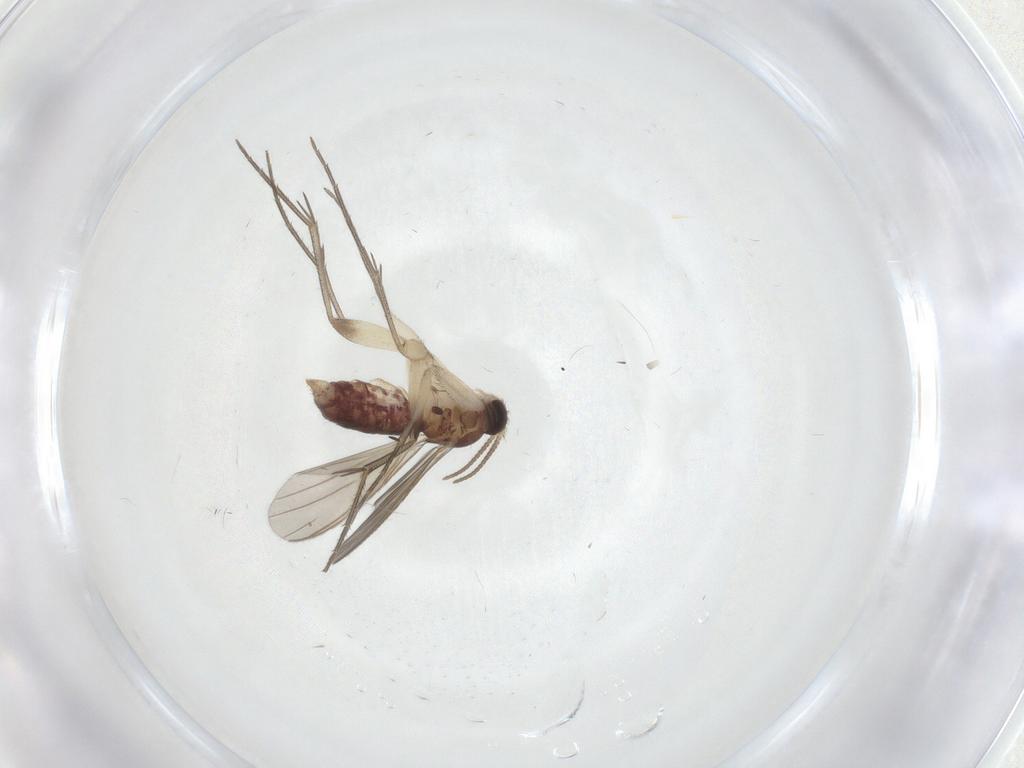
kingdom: Animalia
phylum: Arthropoda
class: Insecta
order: Diptera
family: Mycetophilidae
